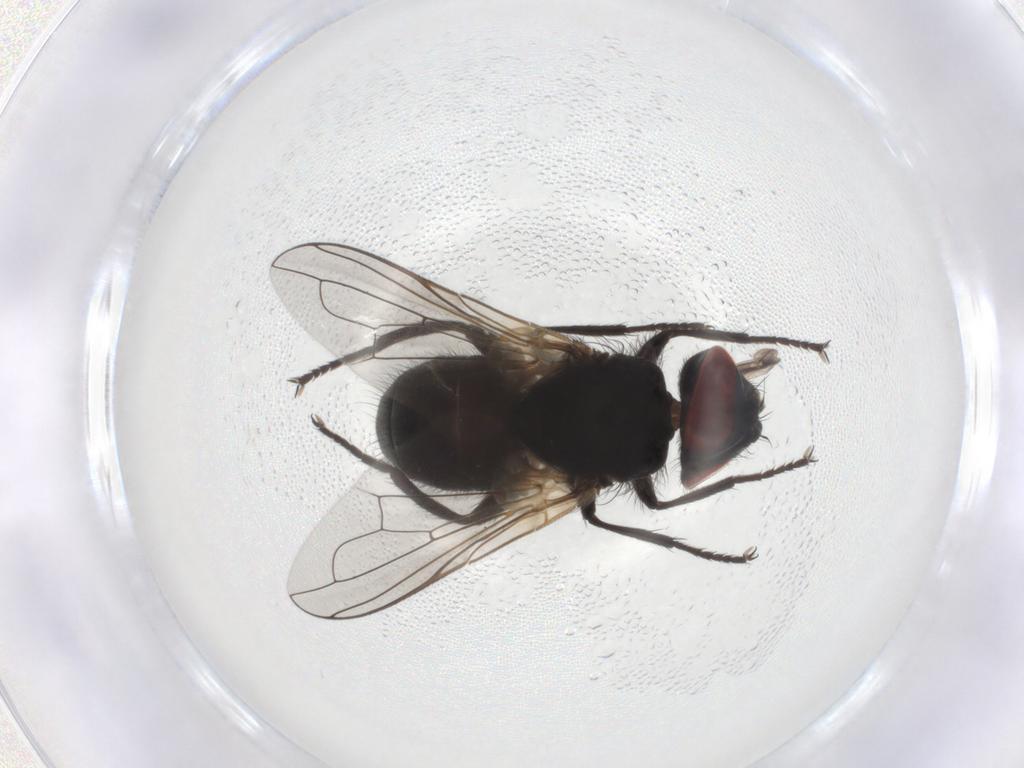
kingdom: Animalia
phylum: Arthropoda
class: Insecta
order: Diptera
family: Tachinidae
